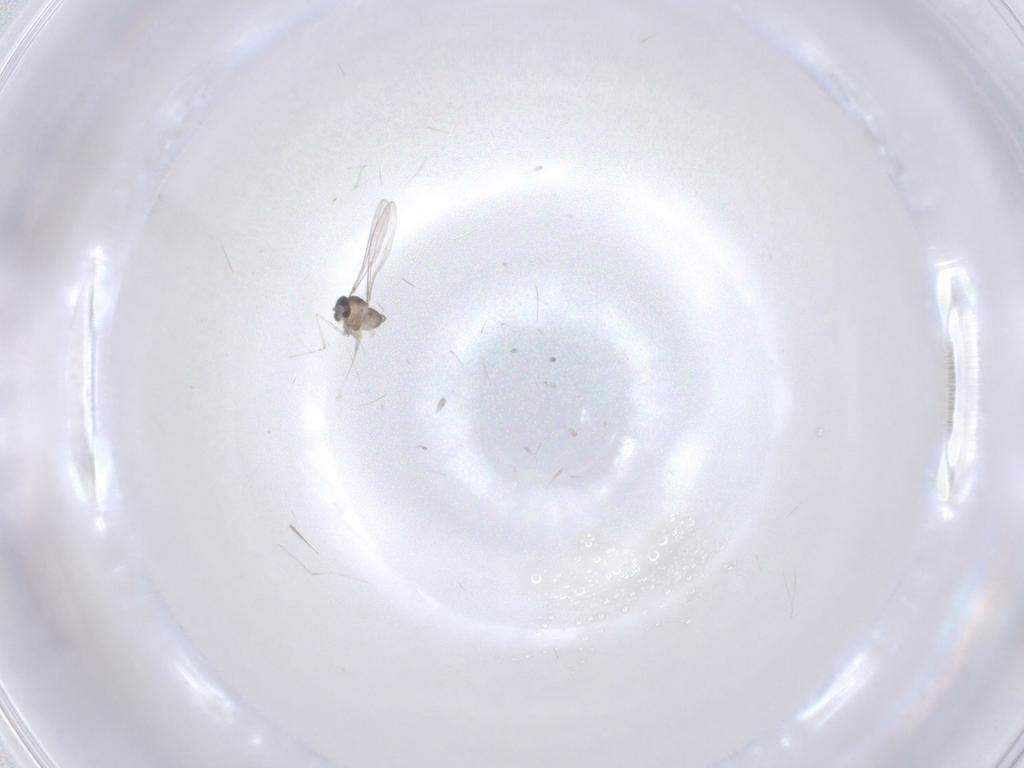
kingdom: Animalia
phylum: Arthropoda
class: Insecta
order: Diptera
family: Cecidomyiidae
